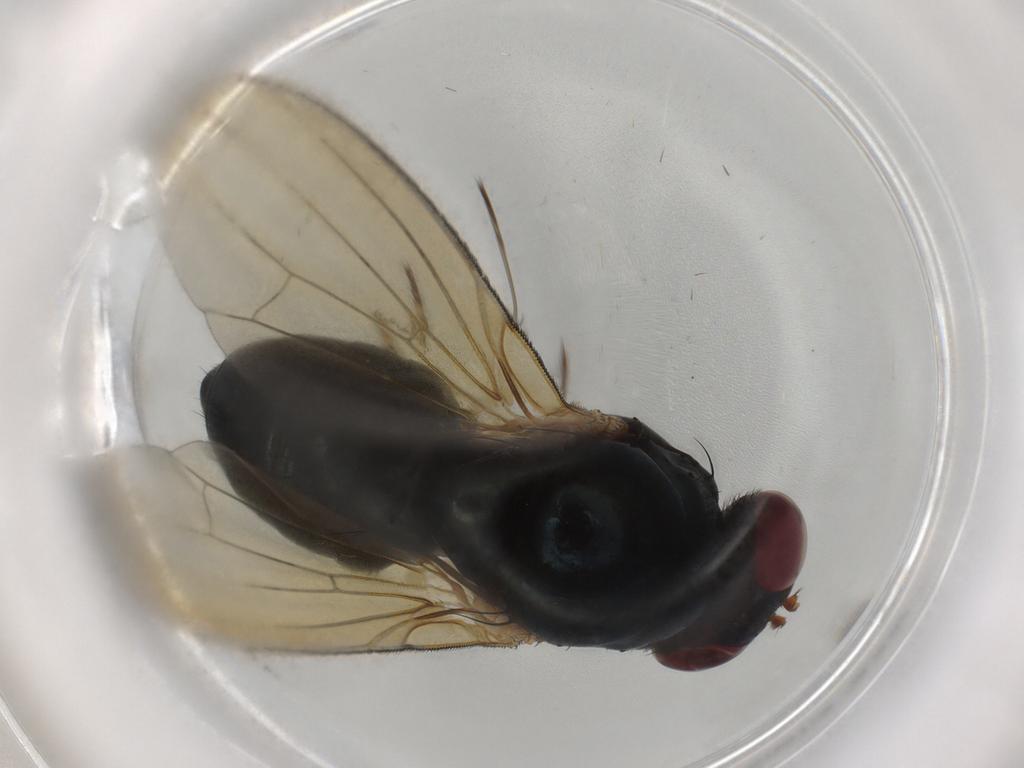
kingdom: Animalia
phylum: Arthropoda
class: Insecta
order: Diptera
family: Lauxaniidae
